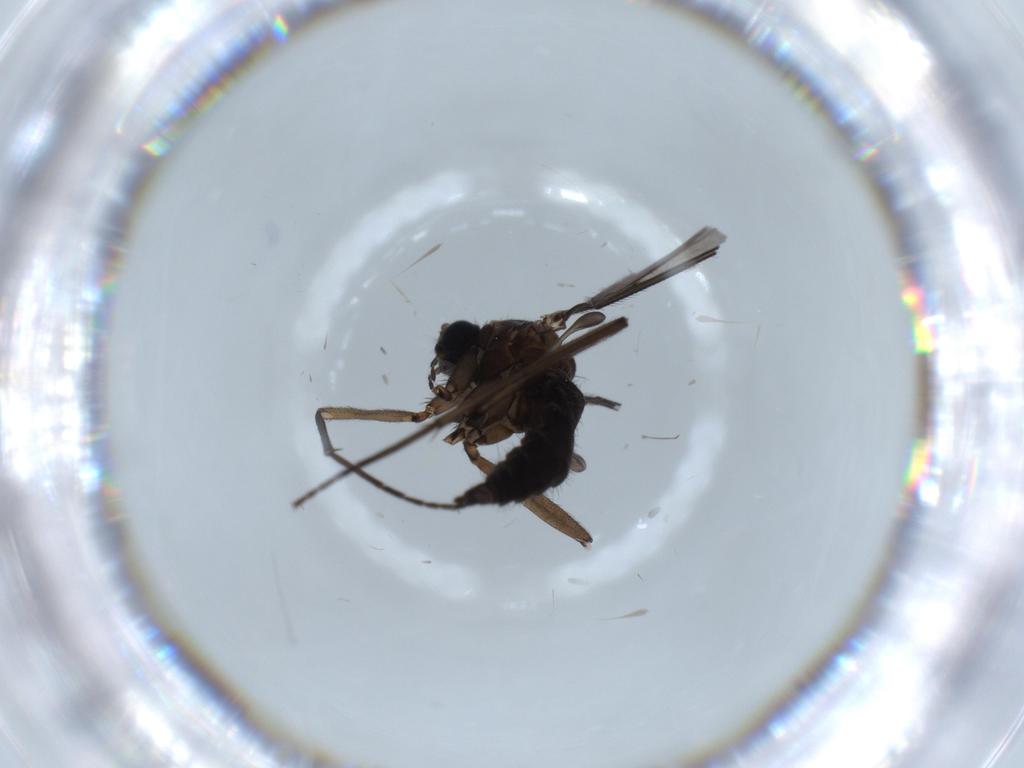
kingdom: Animalia
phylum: Arthropoda
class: Insecta
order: Diptera
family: Sciaridae
